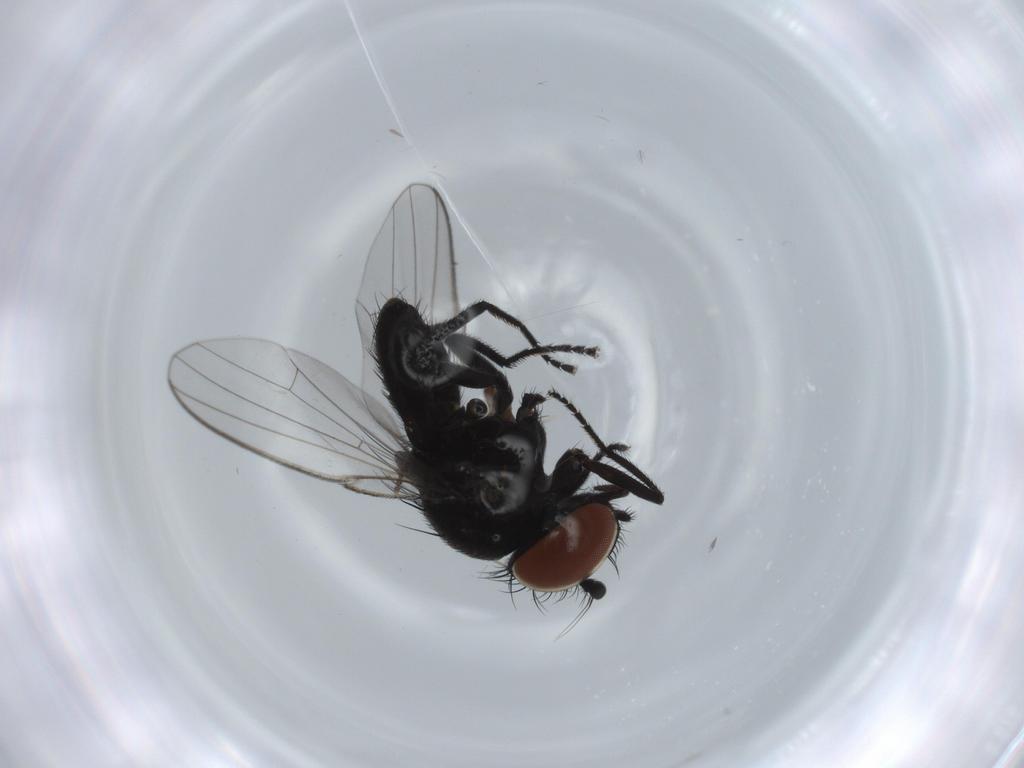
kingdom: Animalia
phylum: Arthropoda
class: Insecta
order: Diptera
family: Milichiidae
